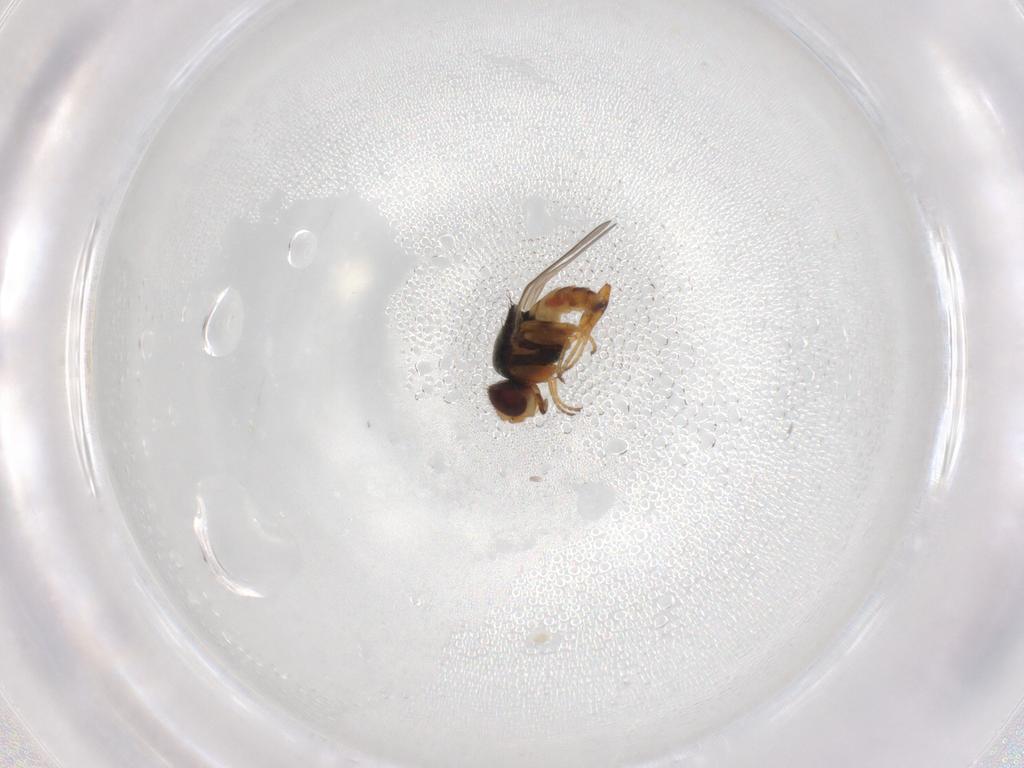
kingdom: Animalia
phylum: Arthropoda
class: Insecta
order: Diptera
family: Chloropidae
